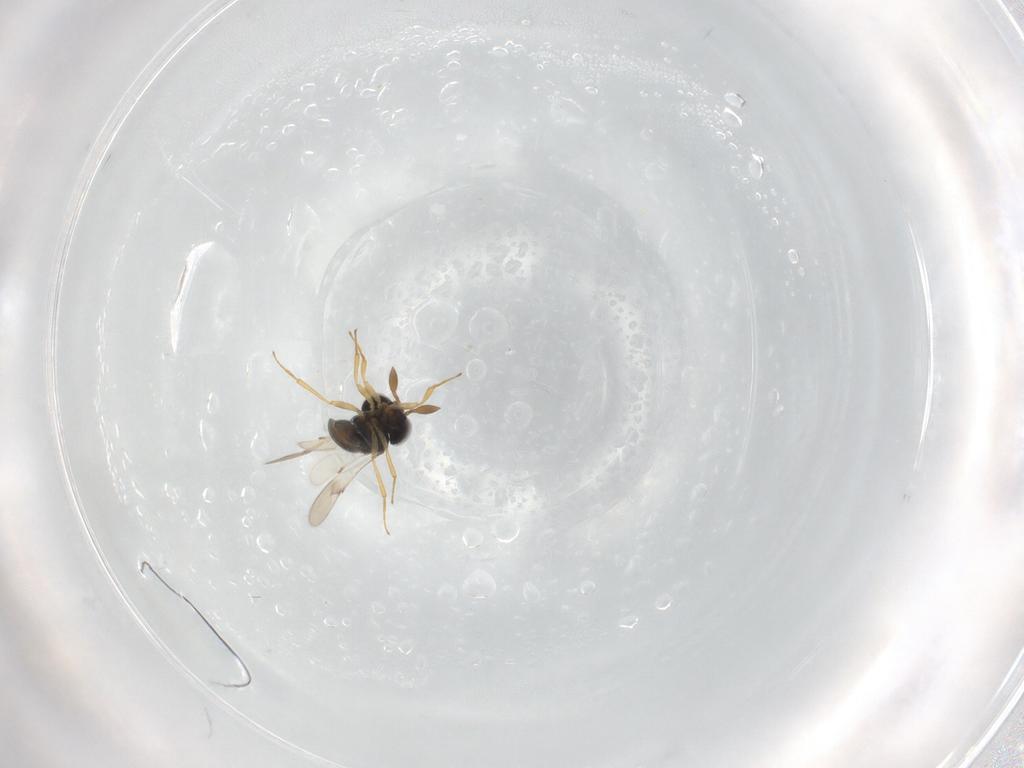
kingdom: Animalia
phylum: Arthropoda
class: Insecta
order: Hymenoptera
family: Scelionidae
